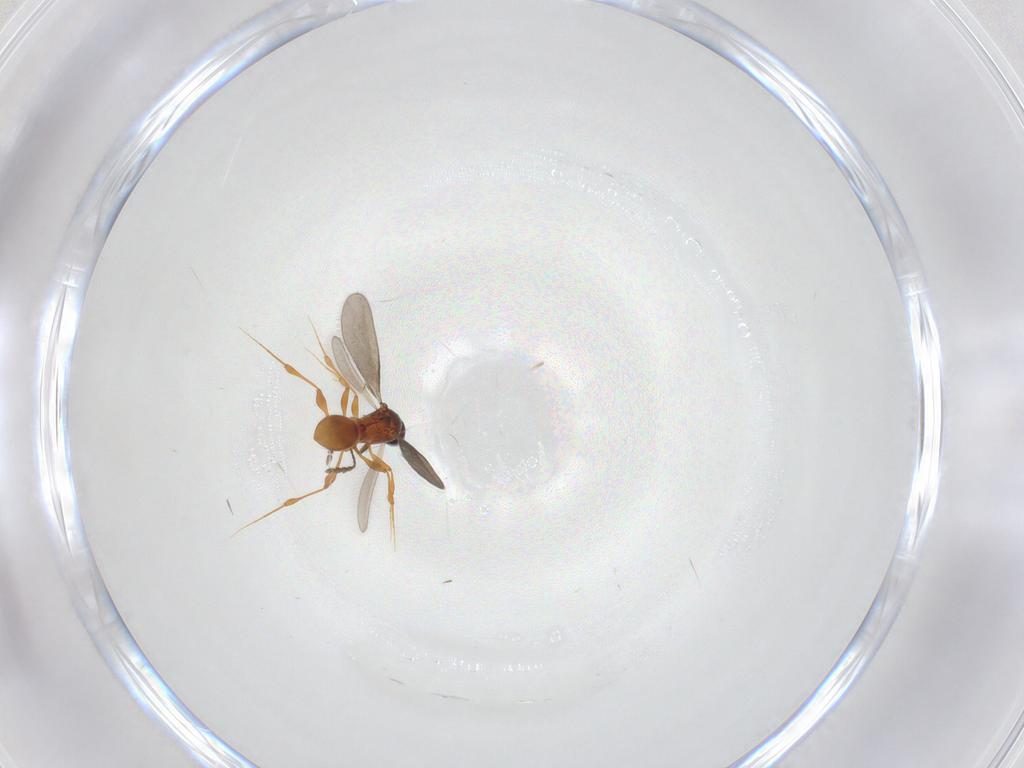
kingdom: Animalia
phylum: Arthropoda
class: Insecta
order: Hymenoptera
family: Platygastridae
